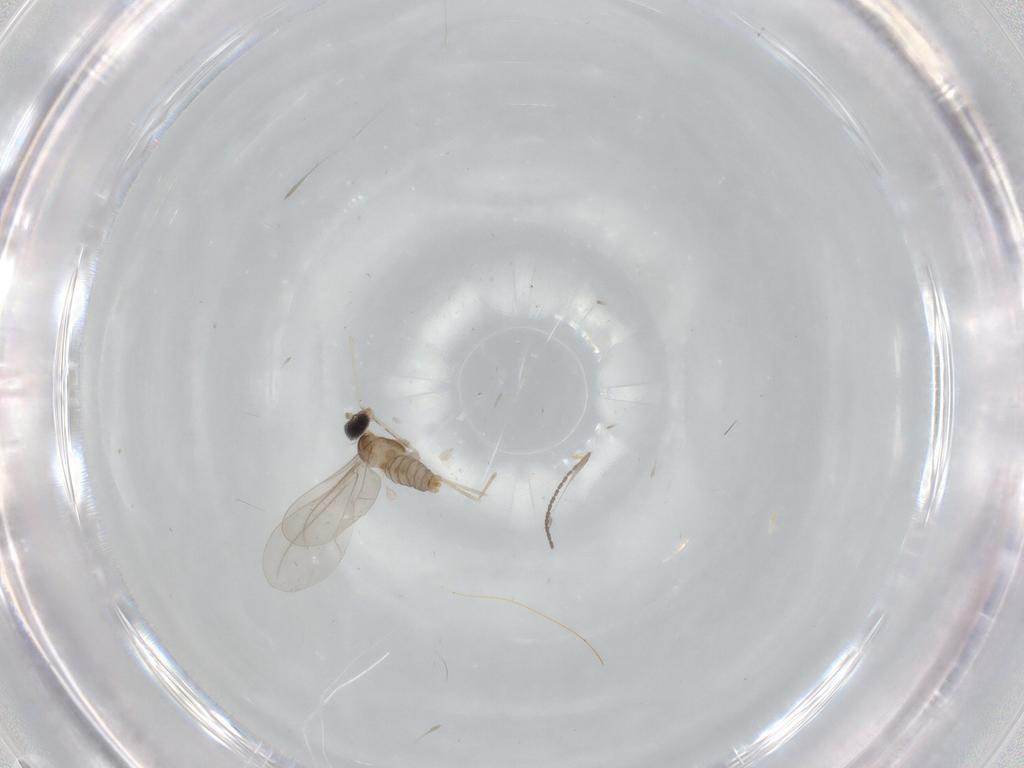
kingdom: Animalia
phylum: Arthropoda
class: Insecta
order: Diptera
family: Cecidomyiidae
